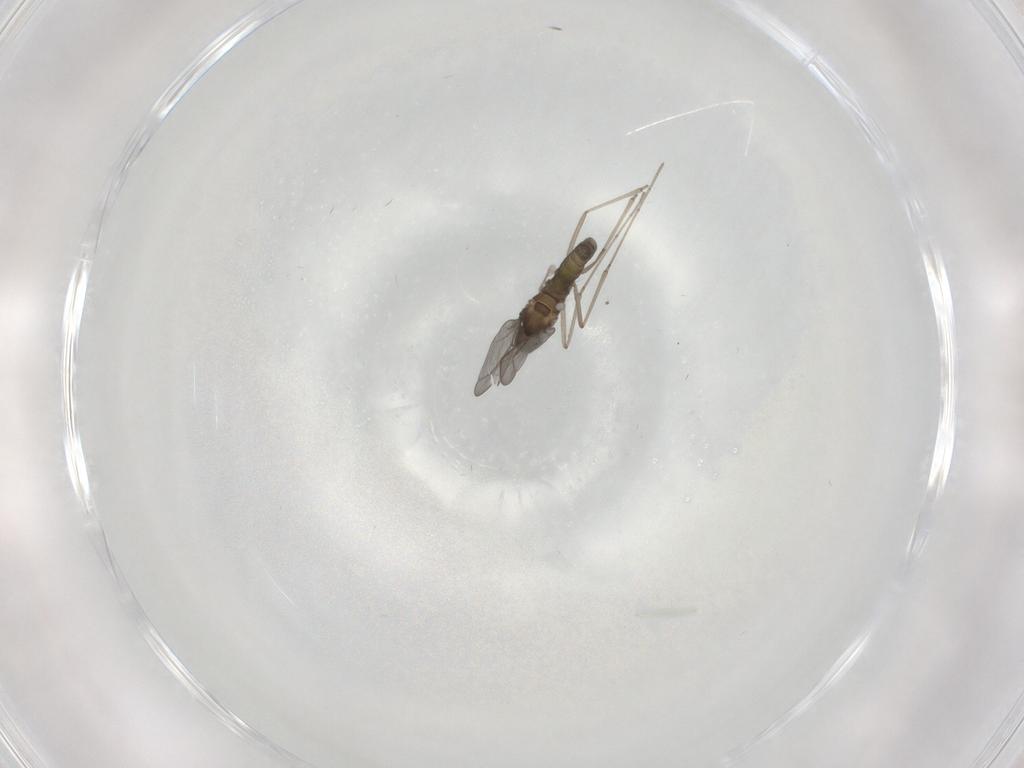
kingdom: Animalia
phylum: Arthropoda
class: Insecta
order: Diptera
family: Cecidomyiidae
